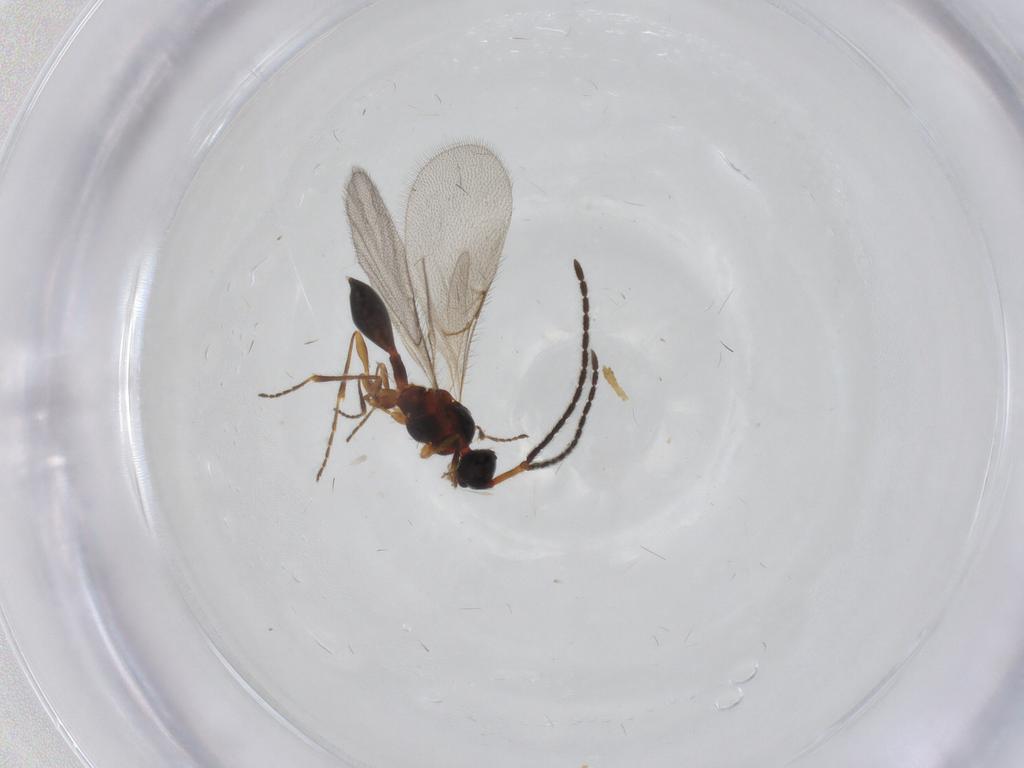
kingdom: Animalia
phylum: Arthropoda
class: Insecta
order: Hymenoptera
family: Diapriidae
